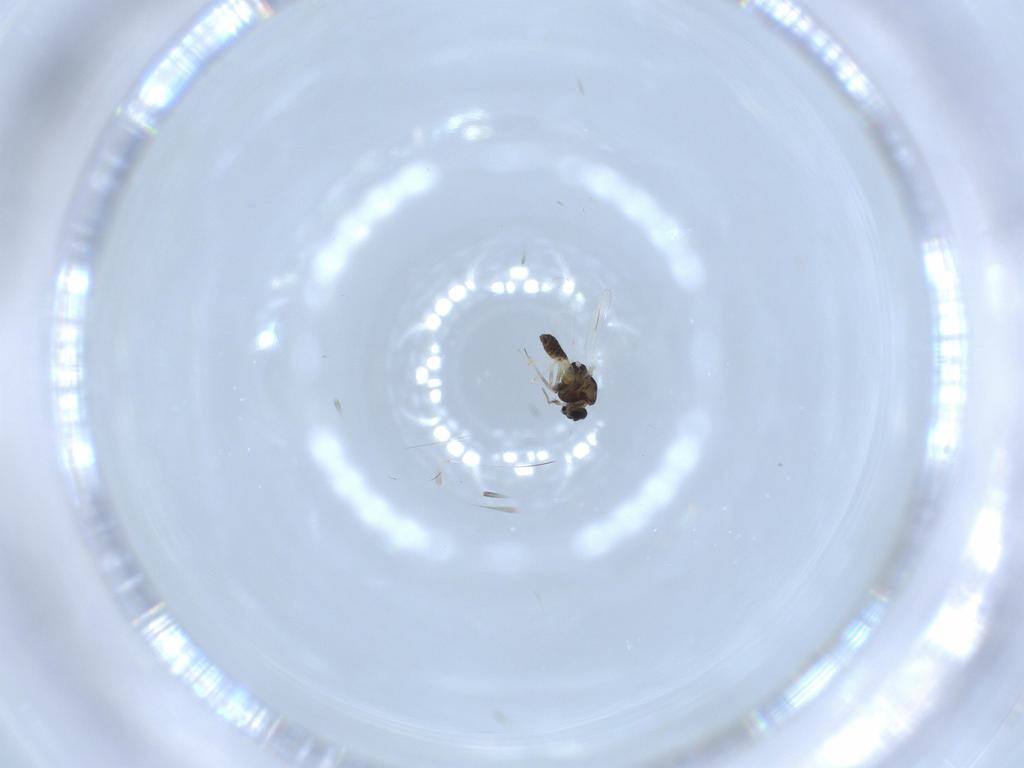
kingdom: Animalia
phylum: Arthropoda
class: Insecta
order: Diptera
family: Chironomidae
